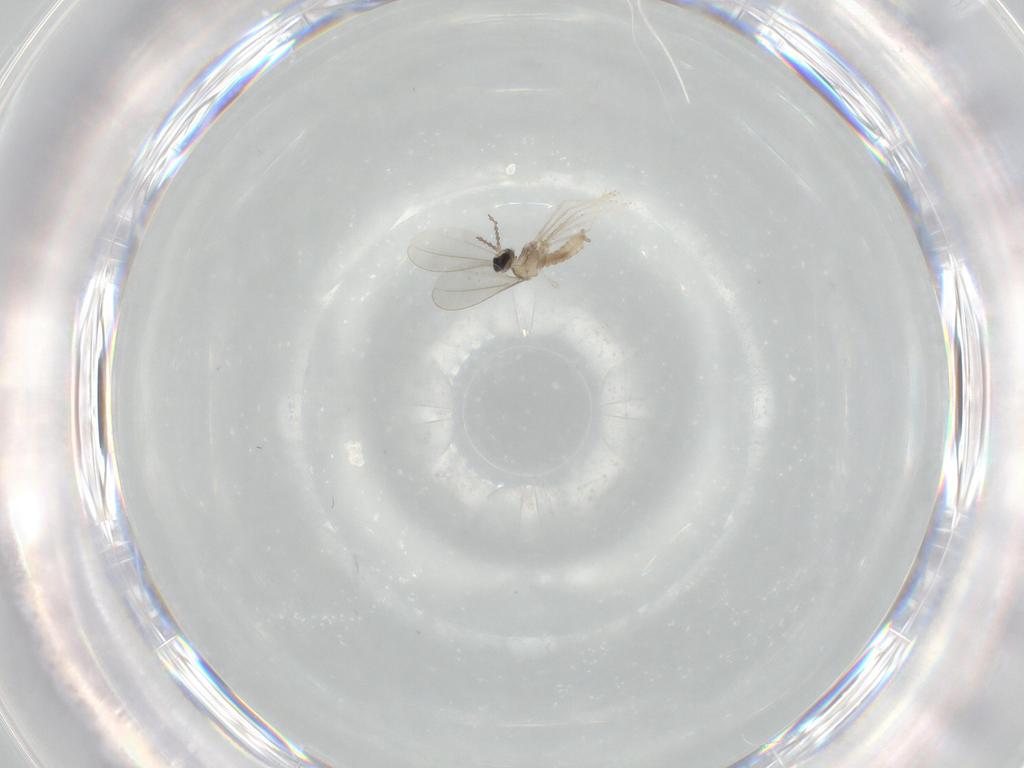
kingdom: Animalia
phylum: Arthropoda
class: Insecta
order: Diptera
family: Cecidomyiidae
